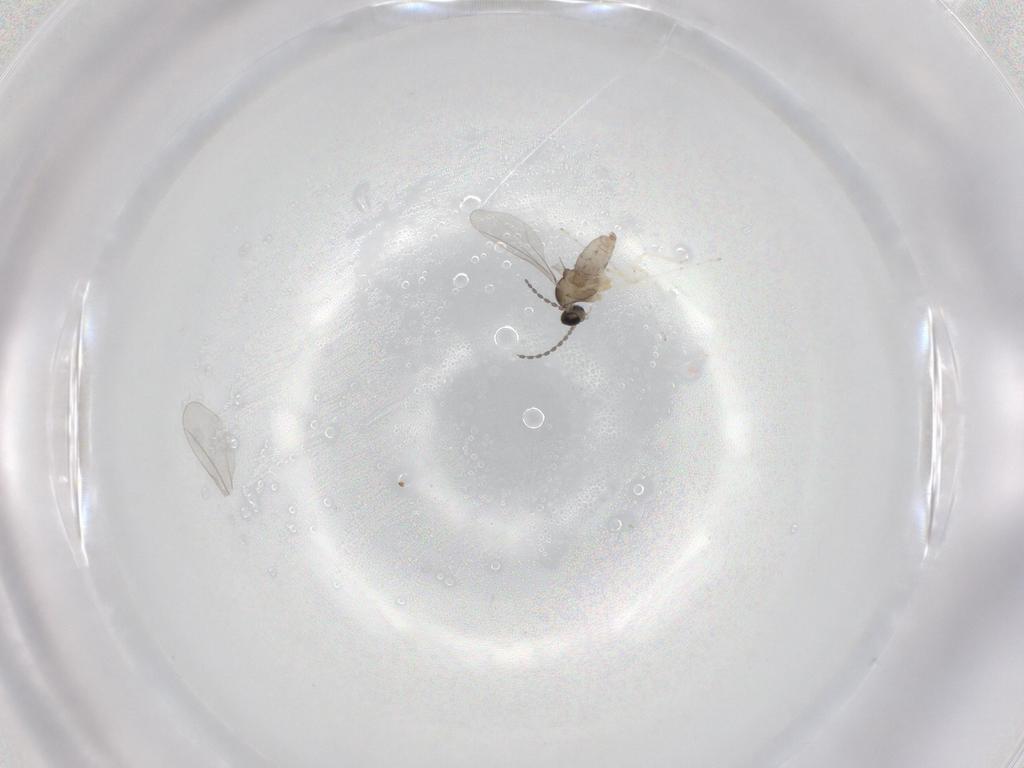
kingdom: Animalia
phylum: Arthropoda
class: Insecta
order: Diptera
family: Cecidomyiidae
